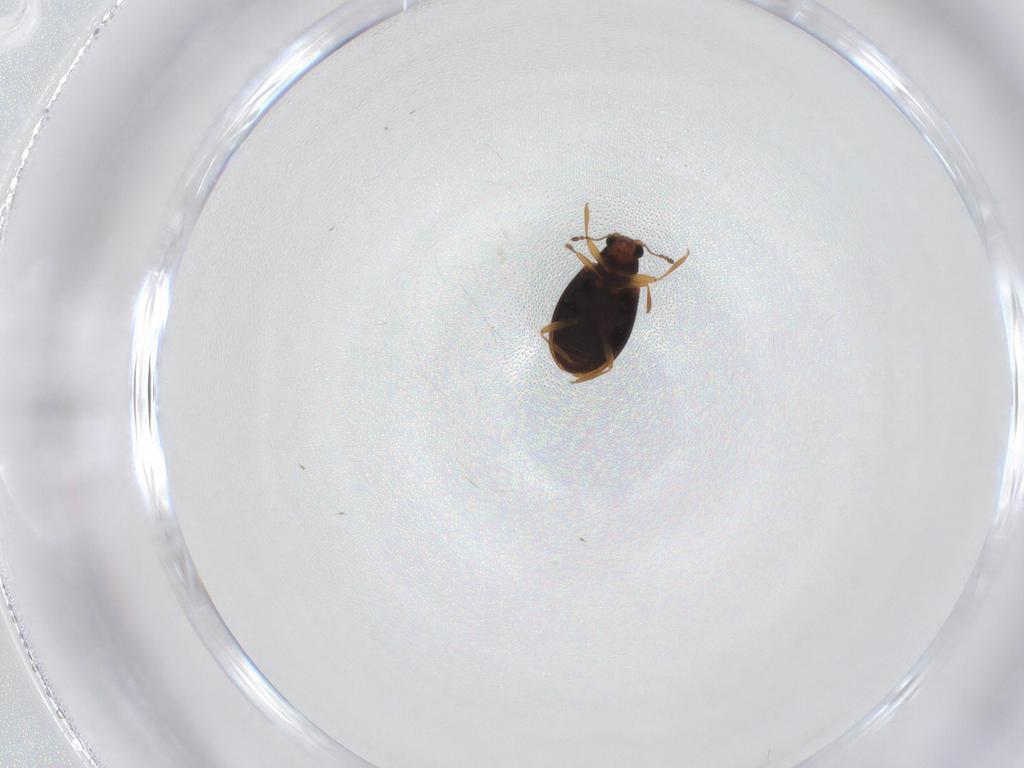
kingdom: Animalia
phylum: Arthropoda
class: Insecta
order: Coleoptera
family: Latridiidae
